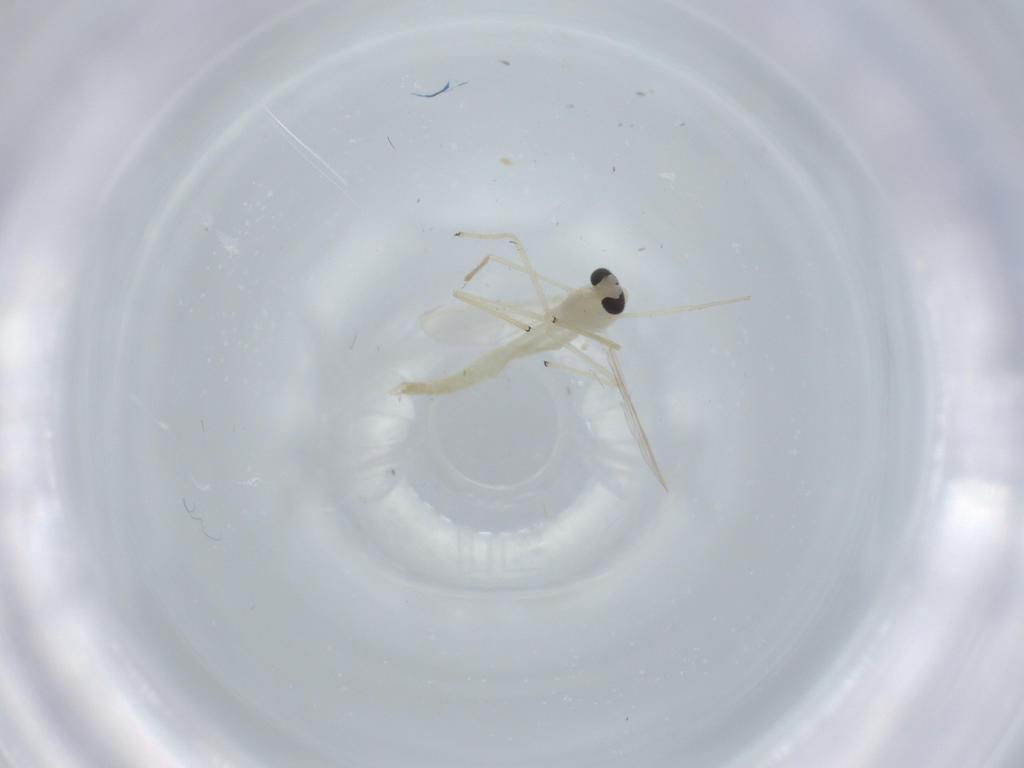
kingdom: Animalia
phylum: Arthropoda
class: Insecta
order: Diptera
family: Chironomidae
